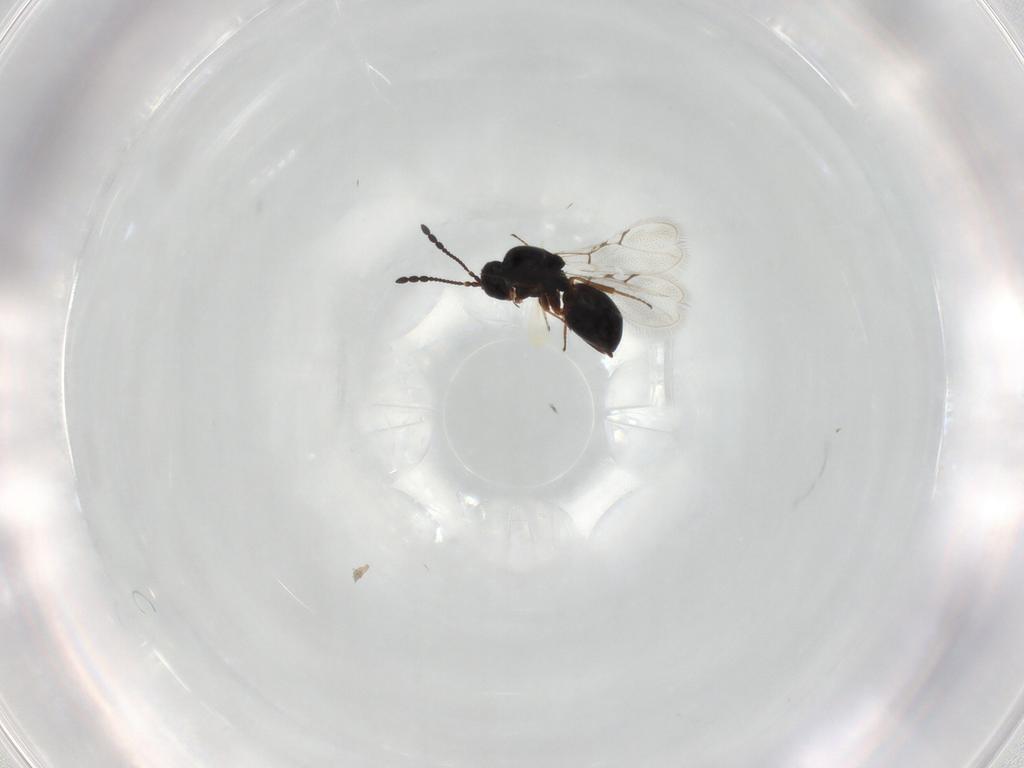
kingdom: Animalia
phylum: Arthropoda
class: Insecta
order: Hymenoptera
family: Figitidae
